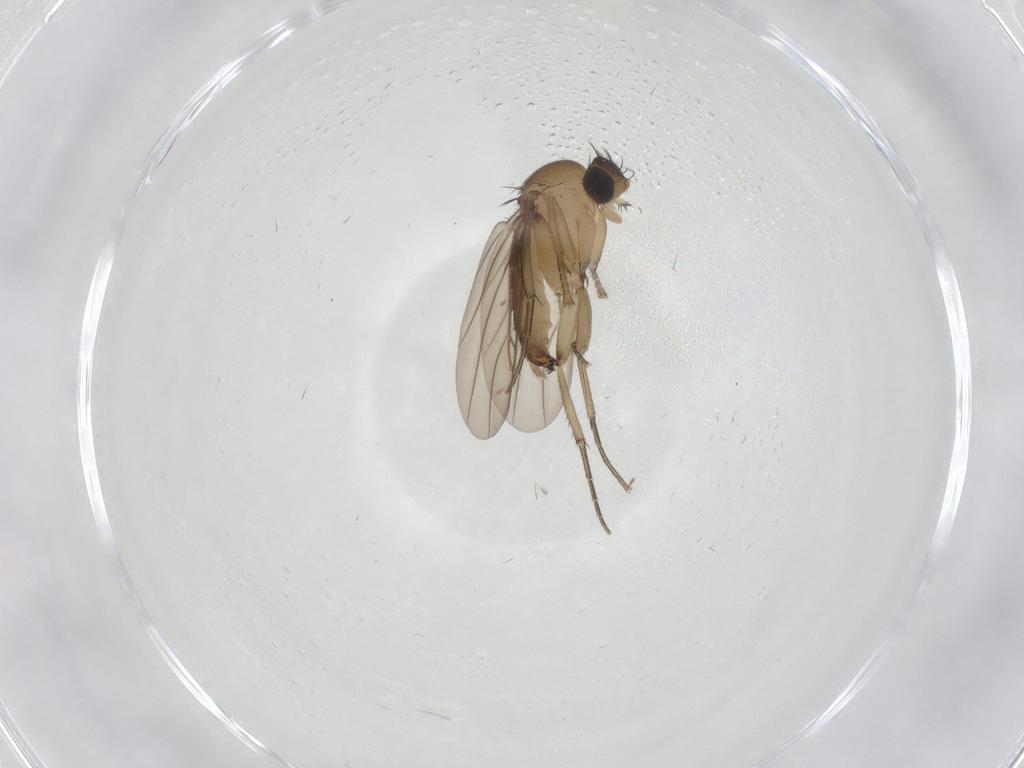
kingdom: Animalia
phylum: Arthropoda
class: Insecta
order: Diptera
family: Phoridae
